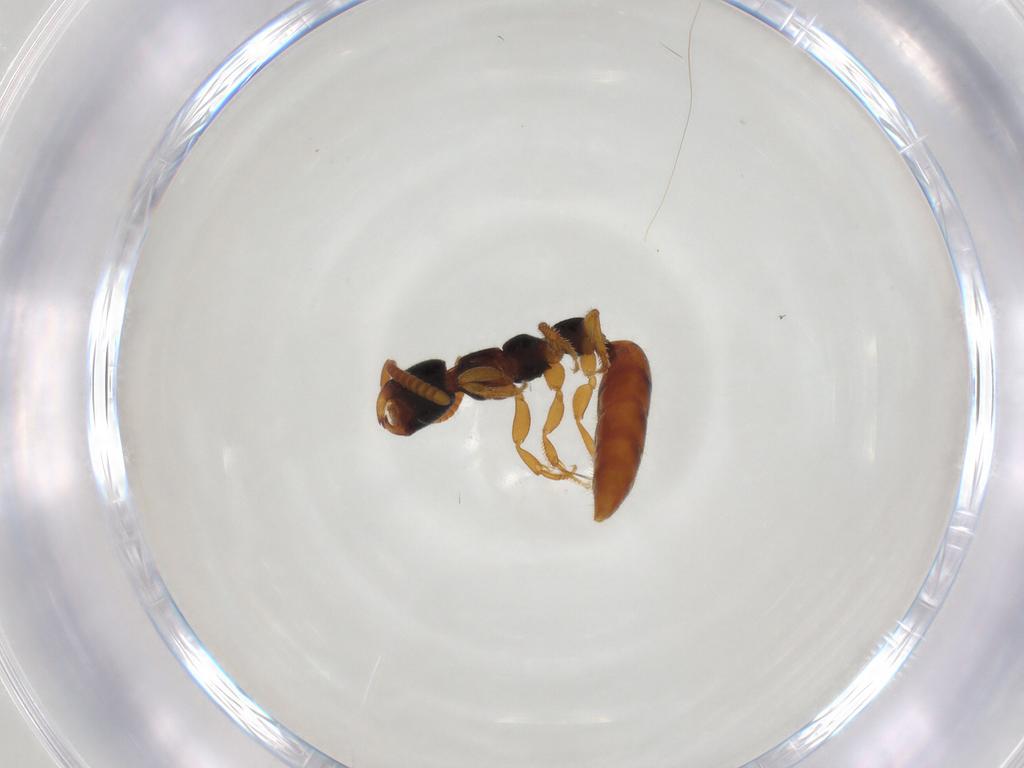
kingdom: Animalia
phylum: Arthropoda
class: Insecta
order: Hymenoptera
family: Bethylidae
